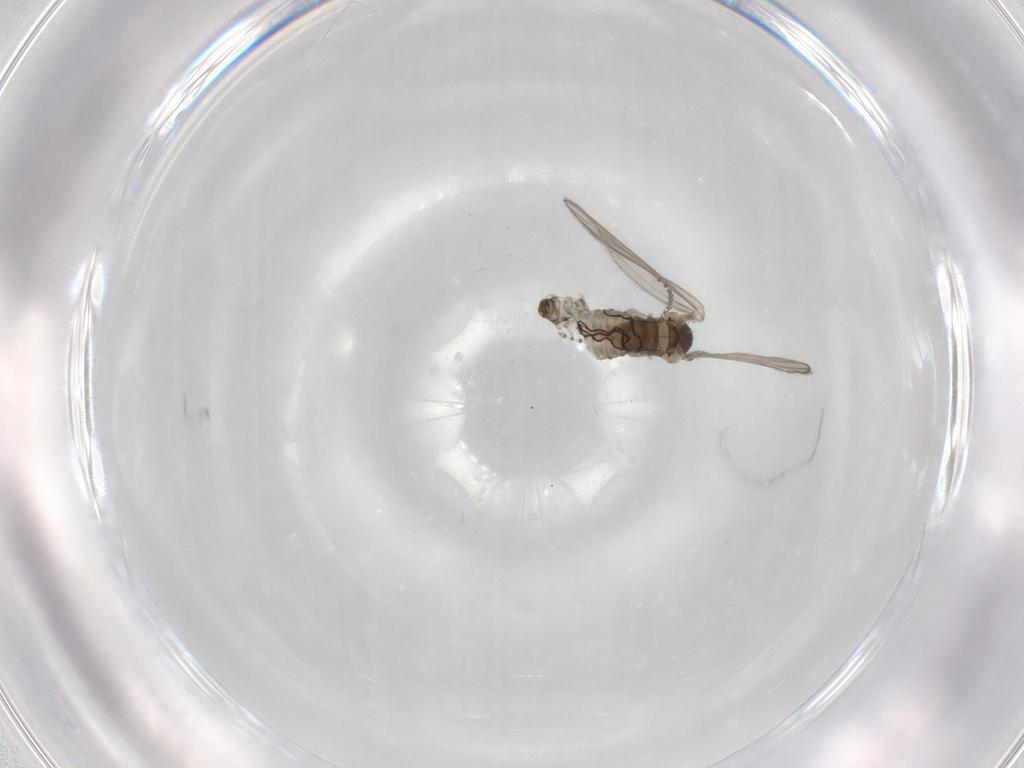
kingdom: Animalia
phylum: Arthropoda
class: Insecta
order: Diptera
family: Psychodidae
